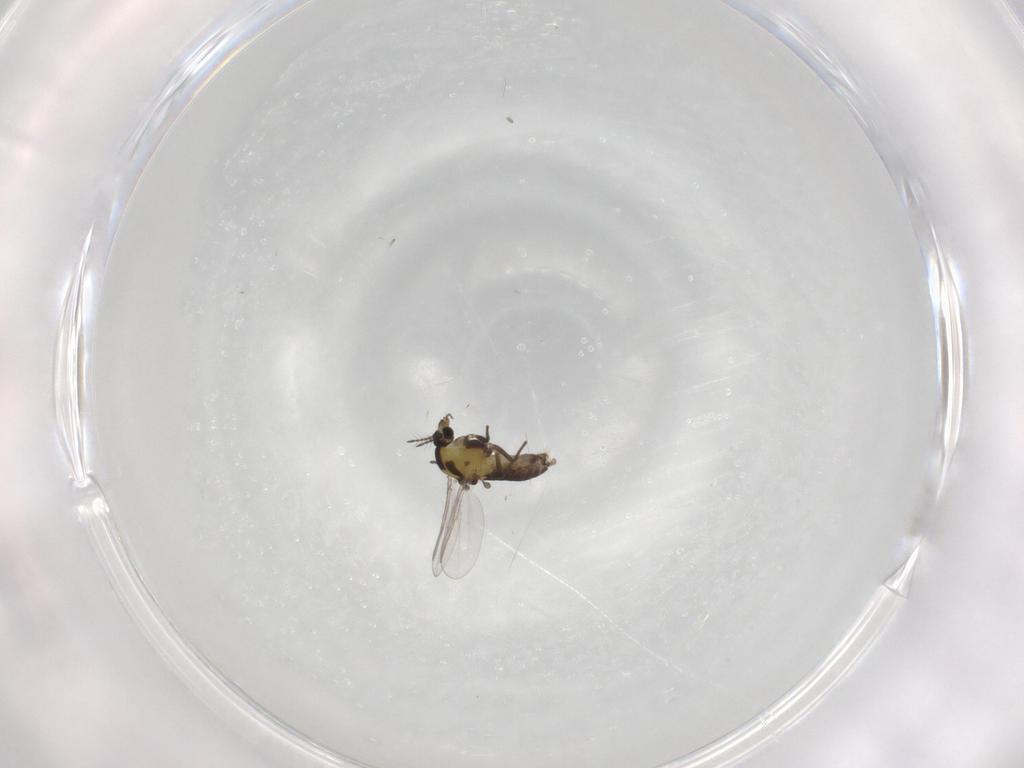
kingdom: Animalia
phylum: Arthropoda
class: Insecta
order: Diptera
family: Chironomidae
